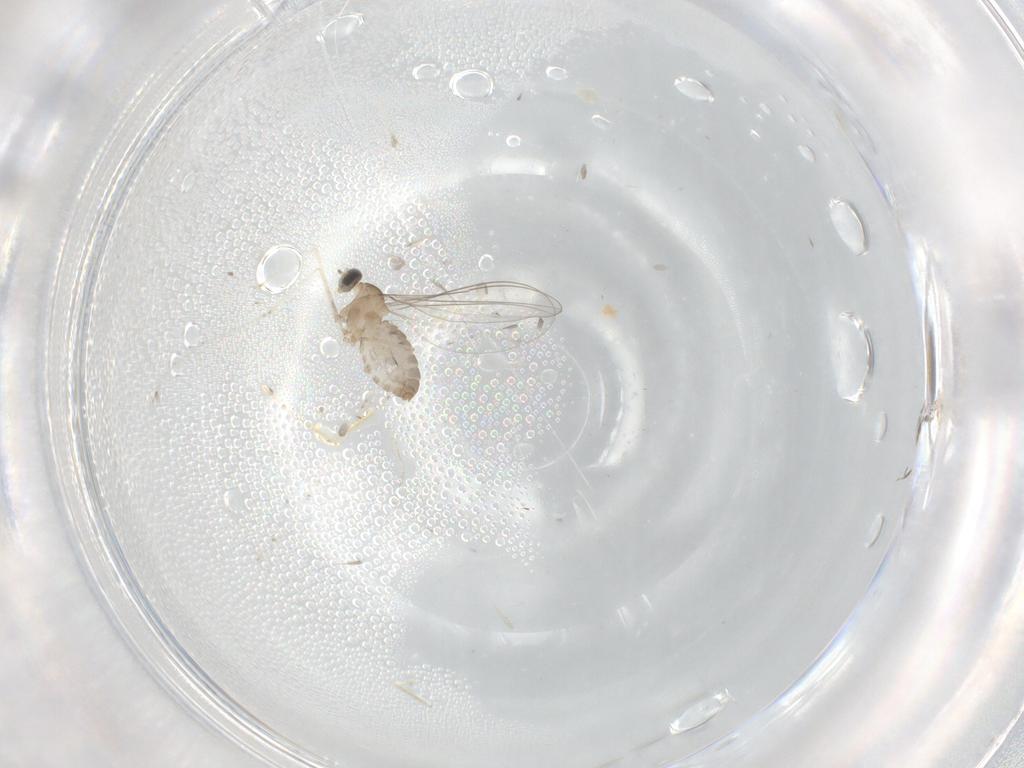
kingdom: Animalia
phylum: Arthropoda
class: Insecta
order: Diptera
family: Cecidomyiidae
